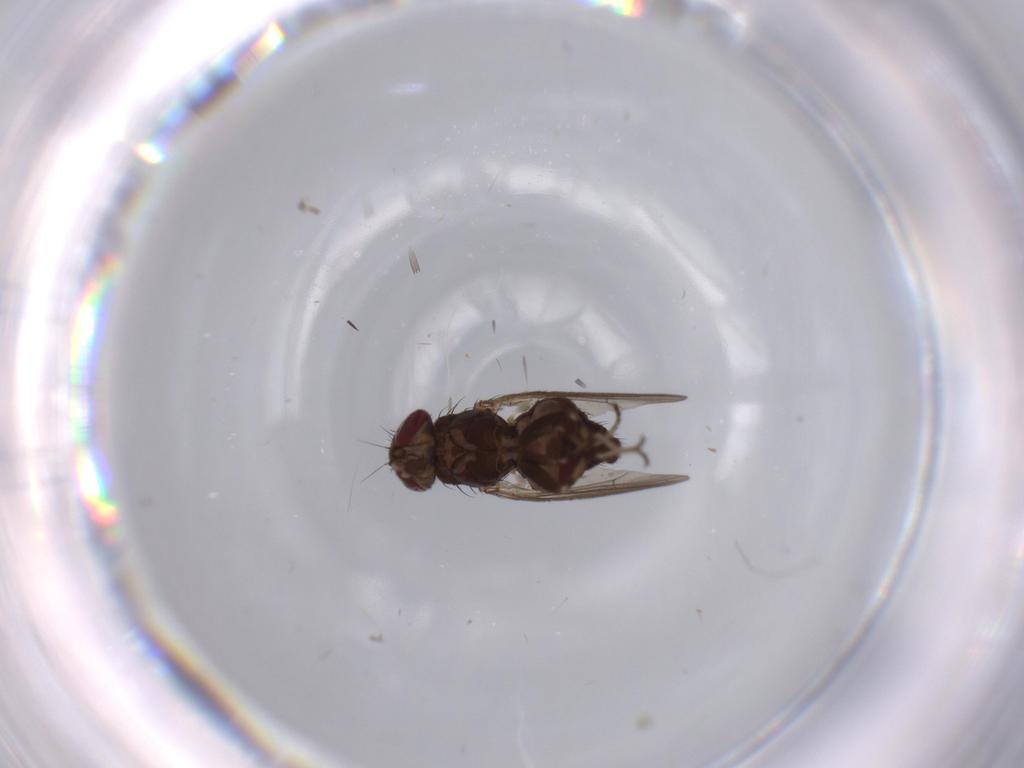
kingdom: Animalia
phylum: Arthropoda
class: Insecta
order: Diptera
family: Heleomyzidae
